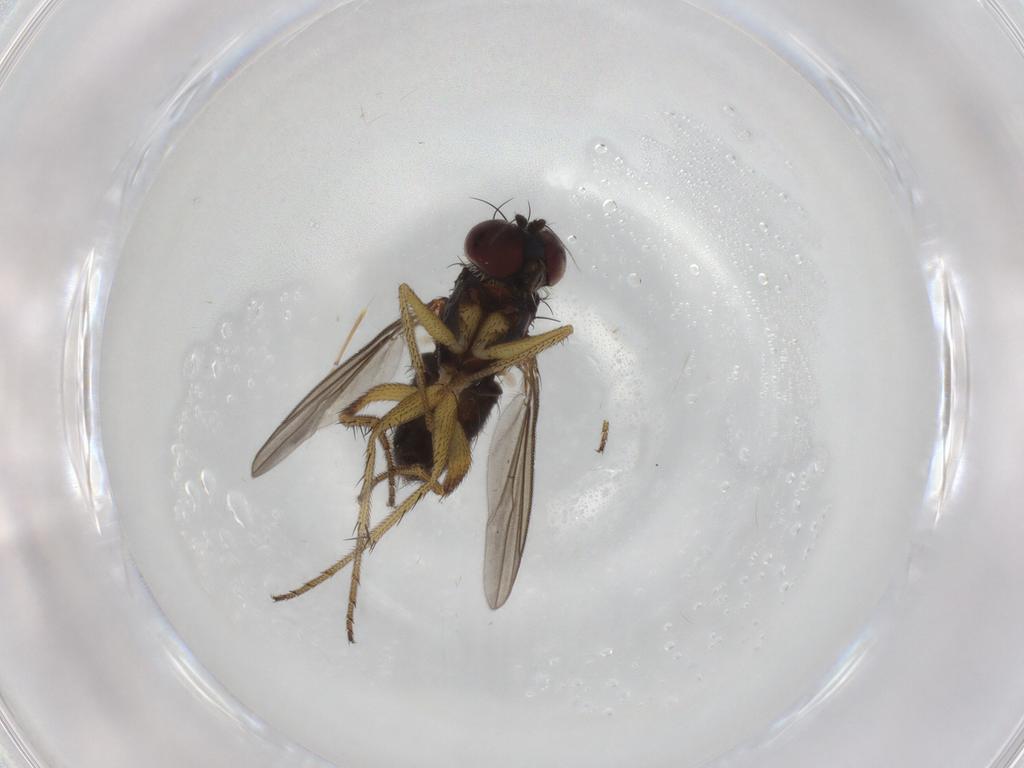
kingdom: Animalia
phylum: Arthropoda
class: Insecta
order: Diptera
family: Dolichopodidae
